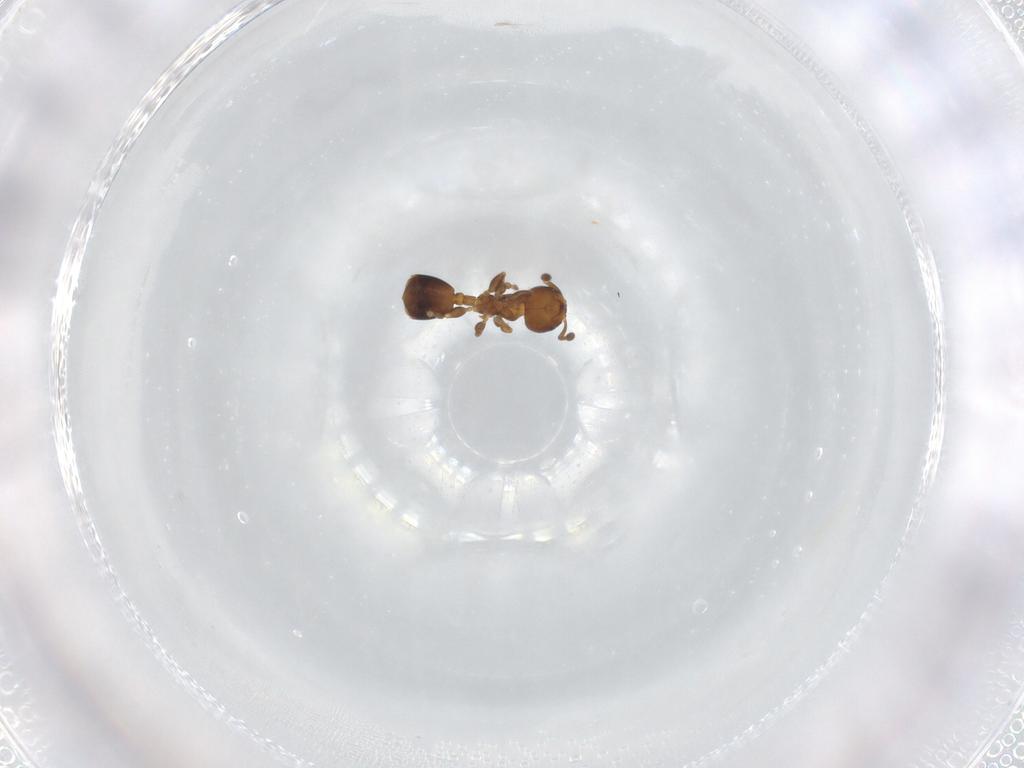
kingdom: Animalia
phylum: Arthropoda
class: Insecta
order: Hymenoptera
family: Formicidae
